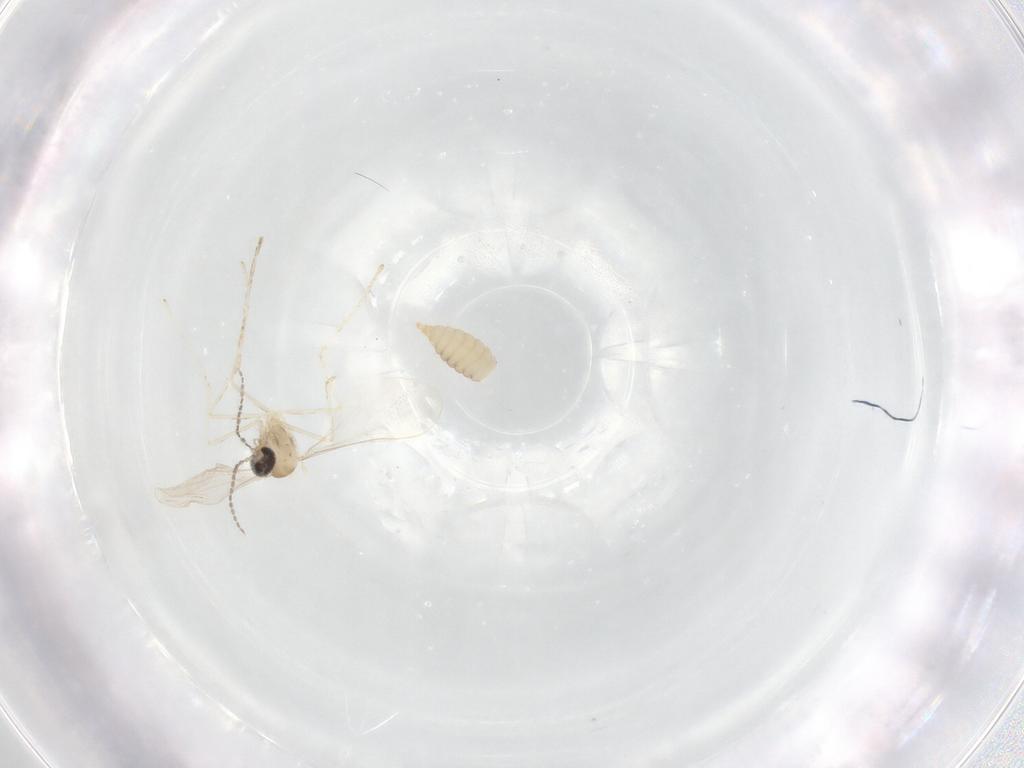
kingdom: Animalia
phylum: Arthropoda
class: Insecta
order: Diptera
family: Cecidomyiidae
